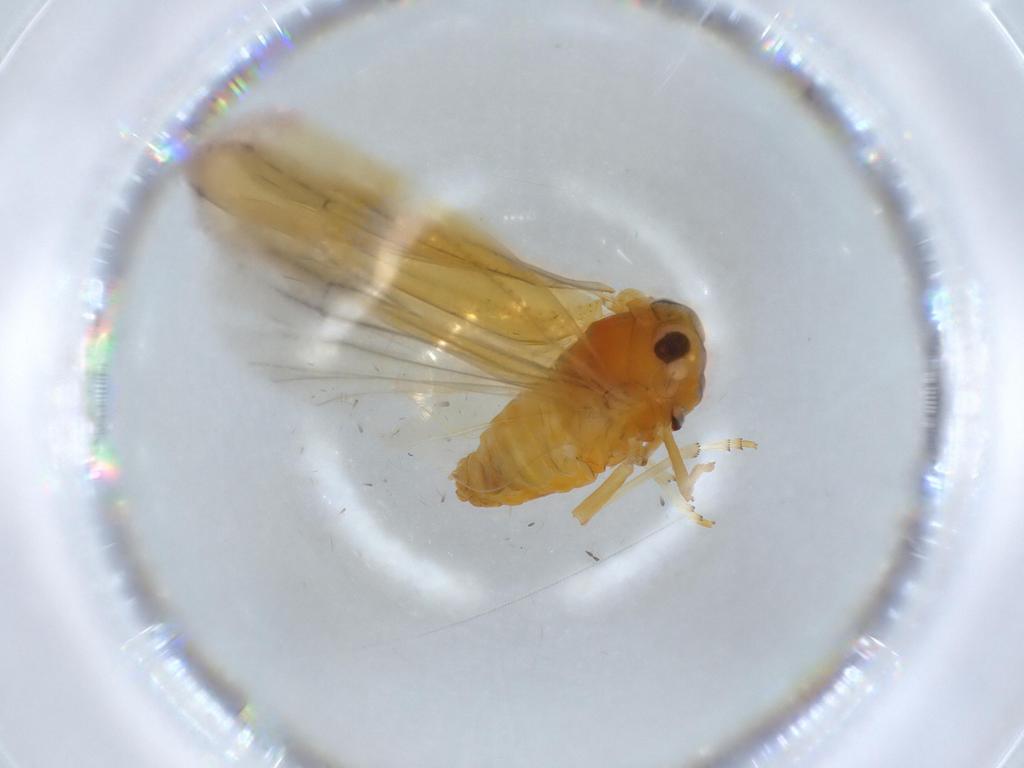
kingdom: Animalia
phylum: Arthropoda
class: Insecta
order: Hemiptera
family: Derbidae
